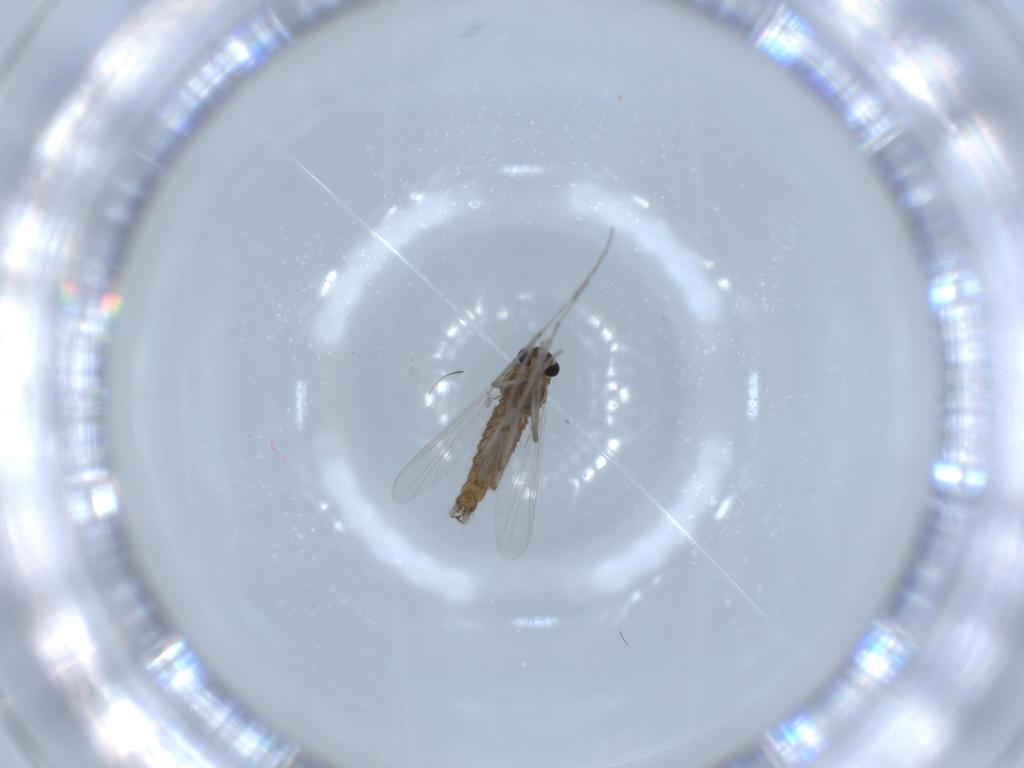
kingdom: Animalia
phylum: Arthropoda
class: Insecta
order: Diptera
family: Chironomidae
